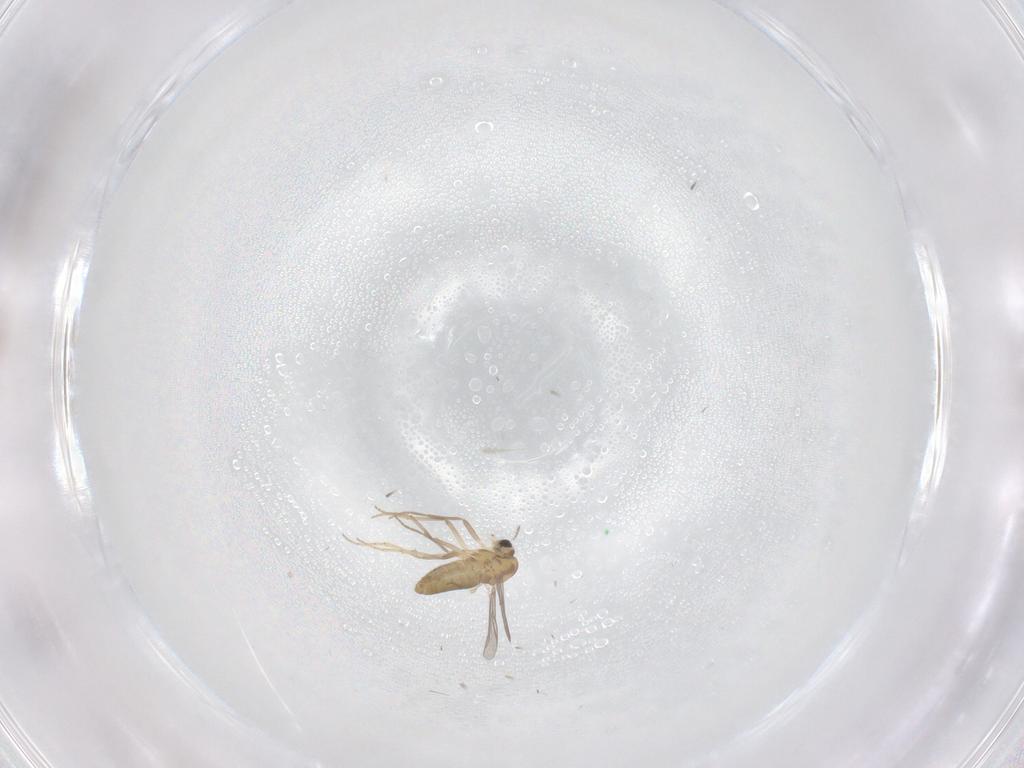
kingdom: Animalia
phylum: Arthropoda
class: Insecta
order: Diptera
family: Chironomidae
